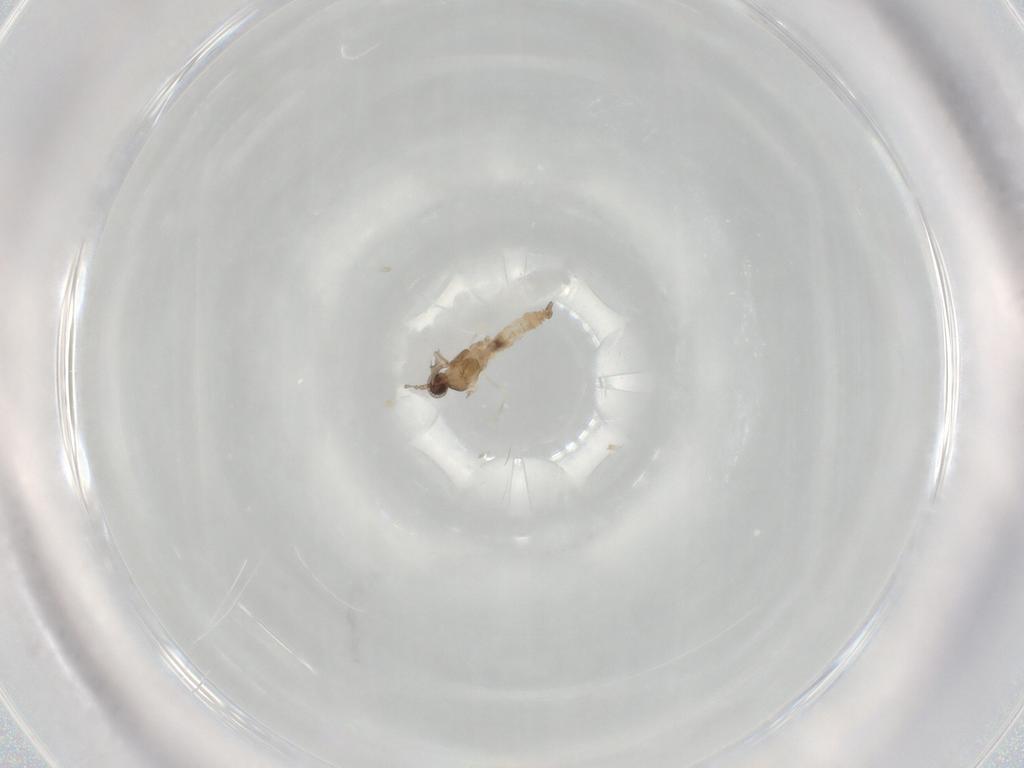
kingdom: Animalia
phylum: Arthropoda
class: Insecta
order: Diptera
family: Cecidomyiidae
